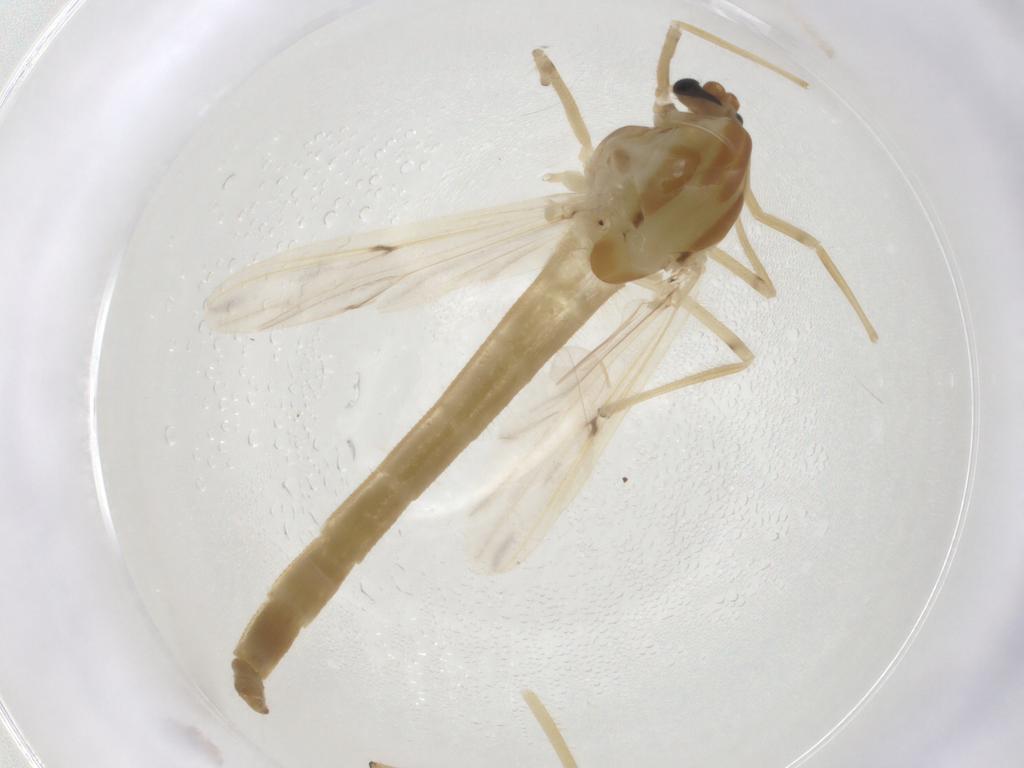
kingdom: Animalia
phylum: Arthropoda
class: Insecta
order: Diptera
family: Chironomidae
